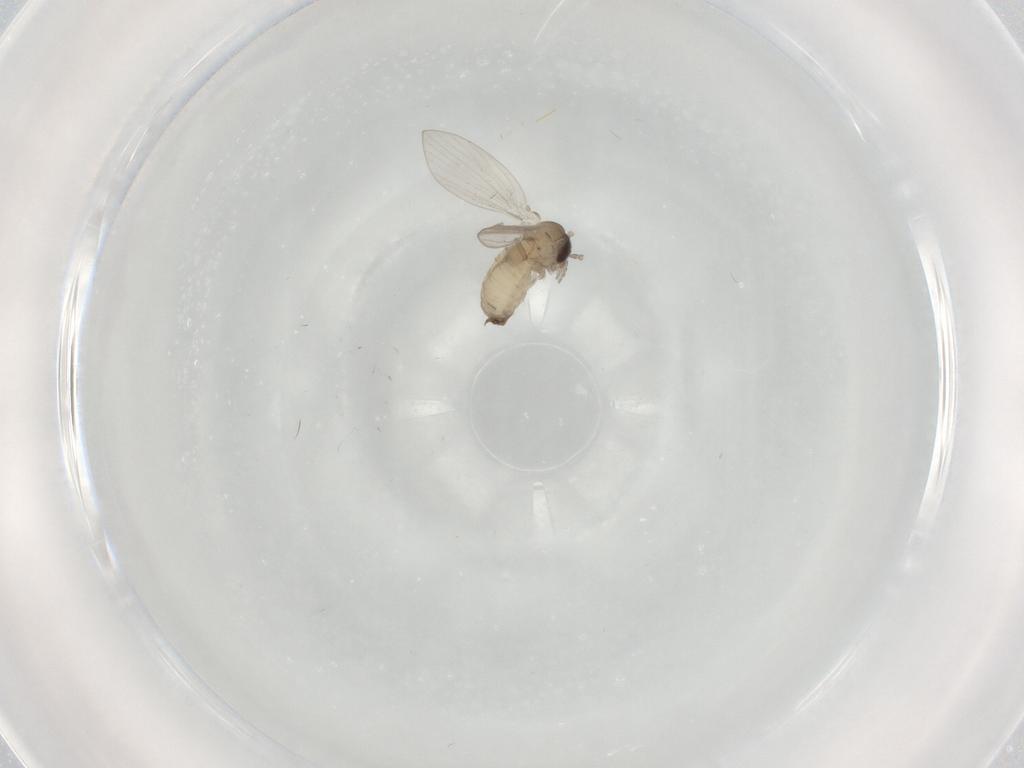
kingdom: Animalia
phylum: Arthropoda
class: Insecta
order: Diptera
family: Psychodidae
